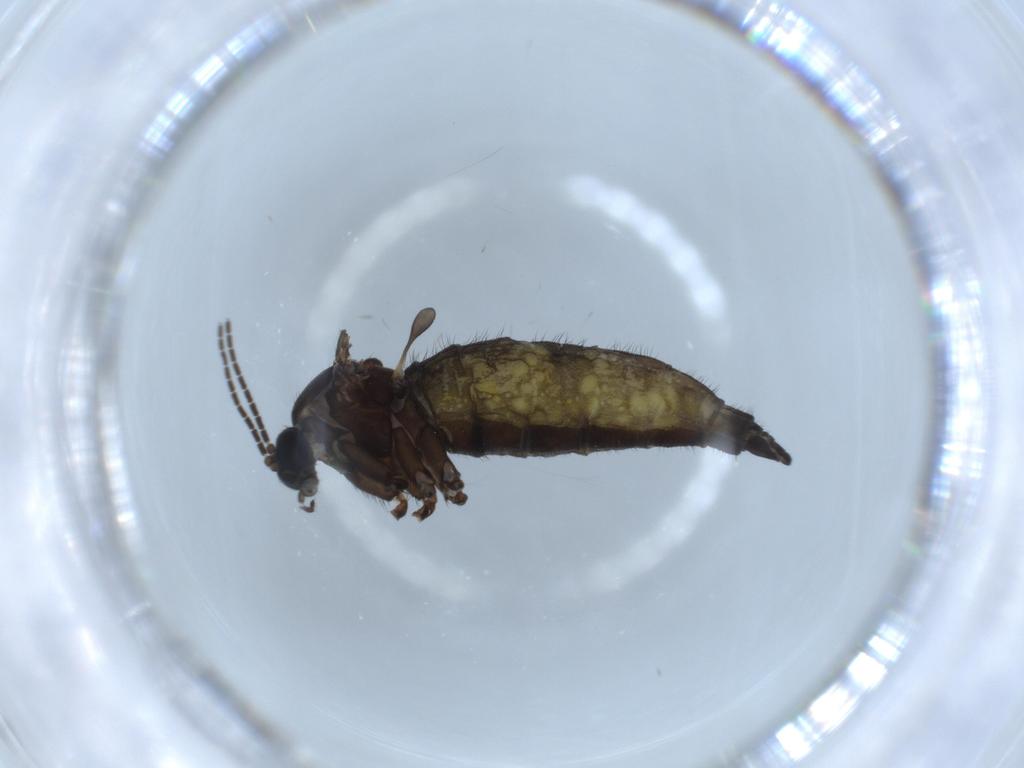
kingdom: Animalia
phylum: Arthropoda
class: Insecta
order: Diptera
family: Sciaridae
